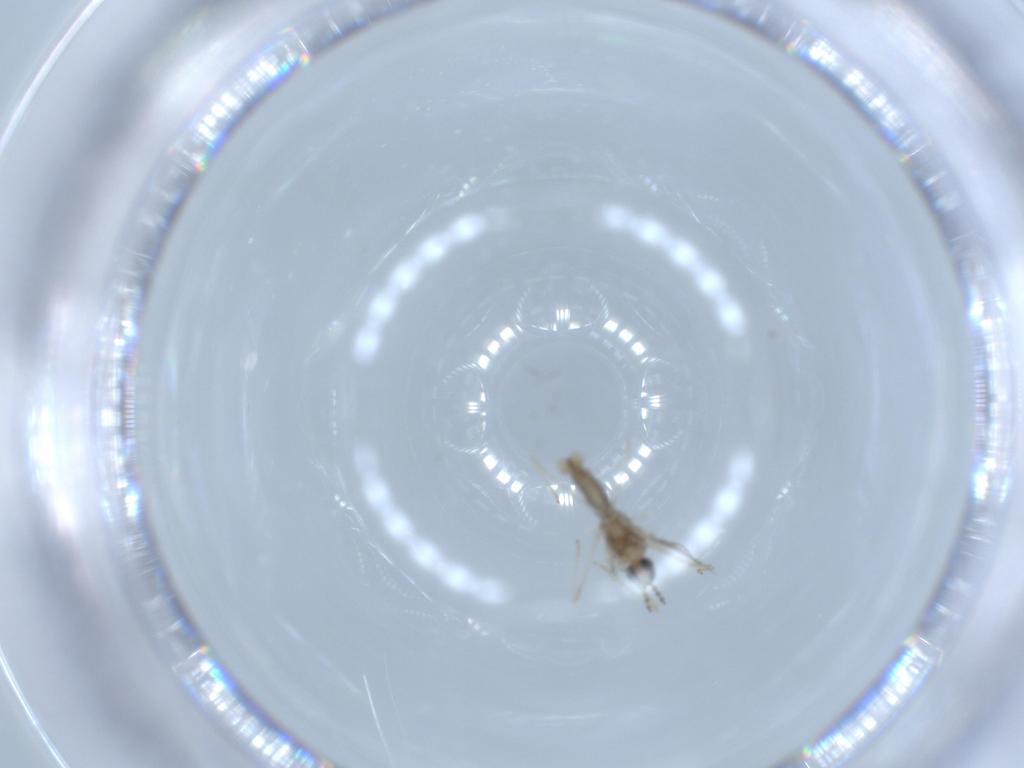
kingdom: Animalia
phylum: Arthropoda
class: Insecta
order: Diptera
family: Cecidomyiidae
